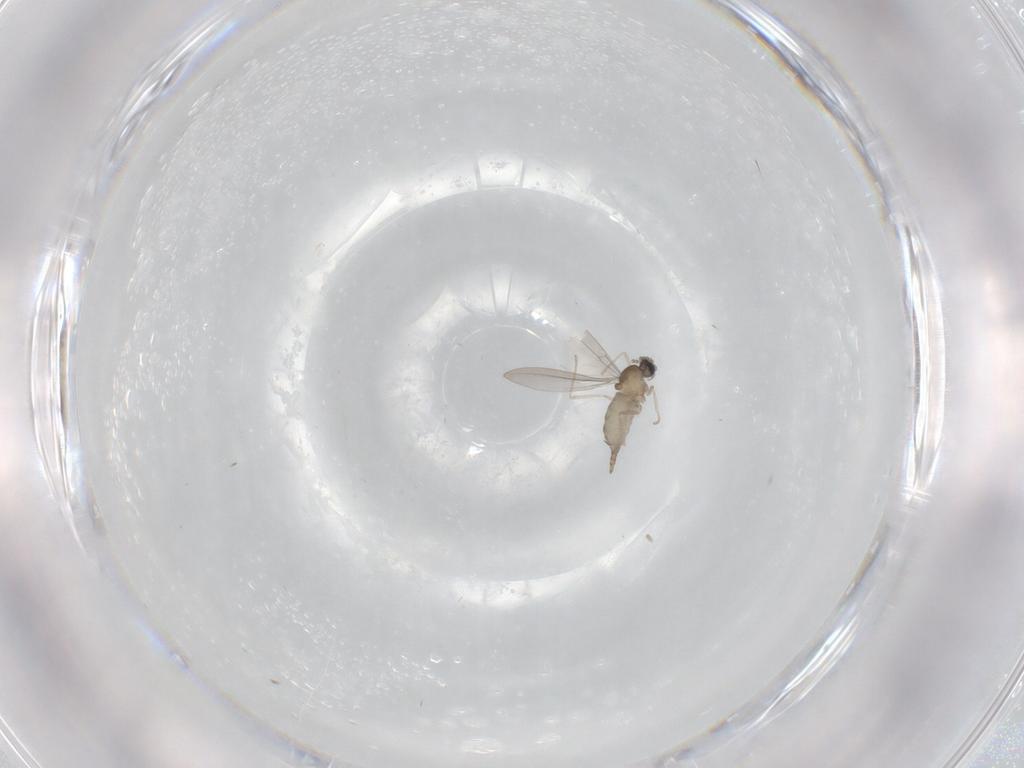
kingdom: Animalia
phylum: Arthropoda
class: Insecta
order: Diptera
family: Cecidomyiidae
